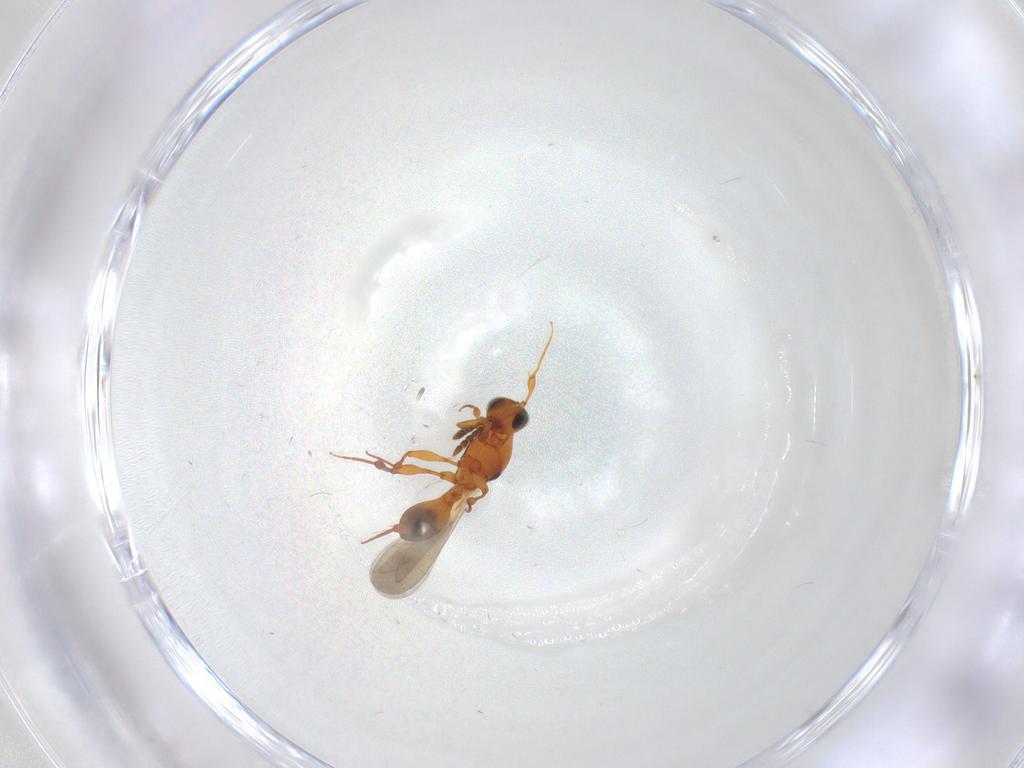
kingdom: Animalia
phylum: Arthropoda
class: Insecta
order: Hymenoptera
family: Platygastridae
